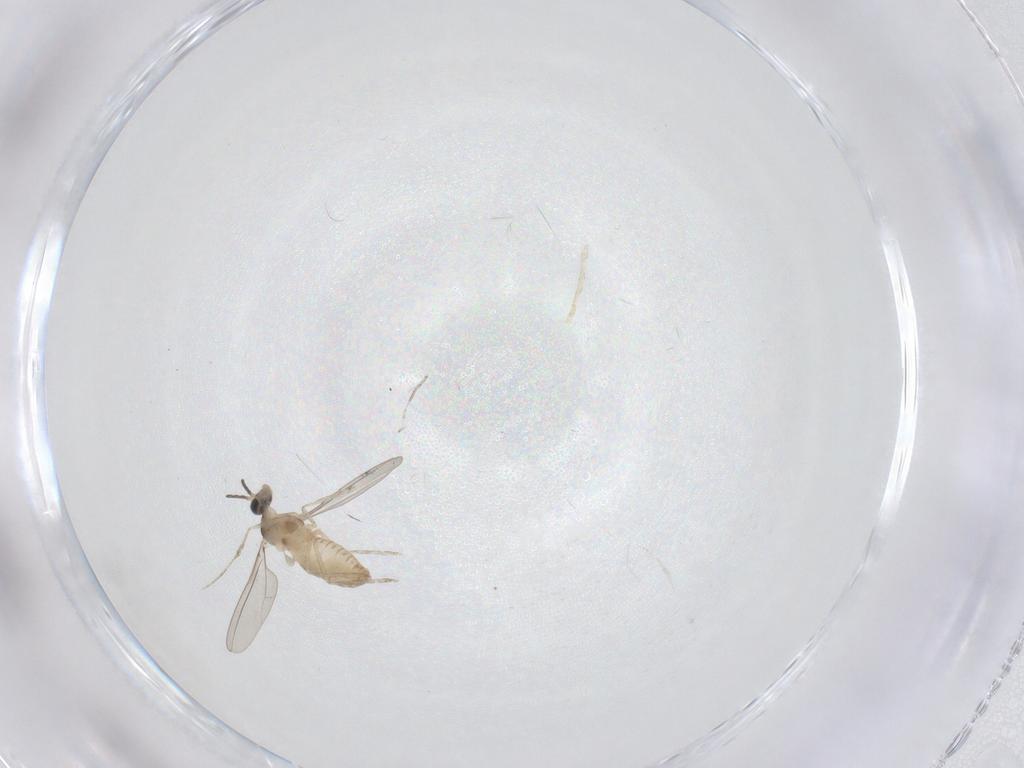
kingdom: Animalia
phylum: Arthropoda
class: Insecta
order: Diptera
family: Cecidomyiidae
